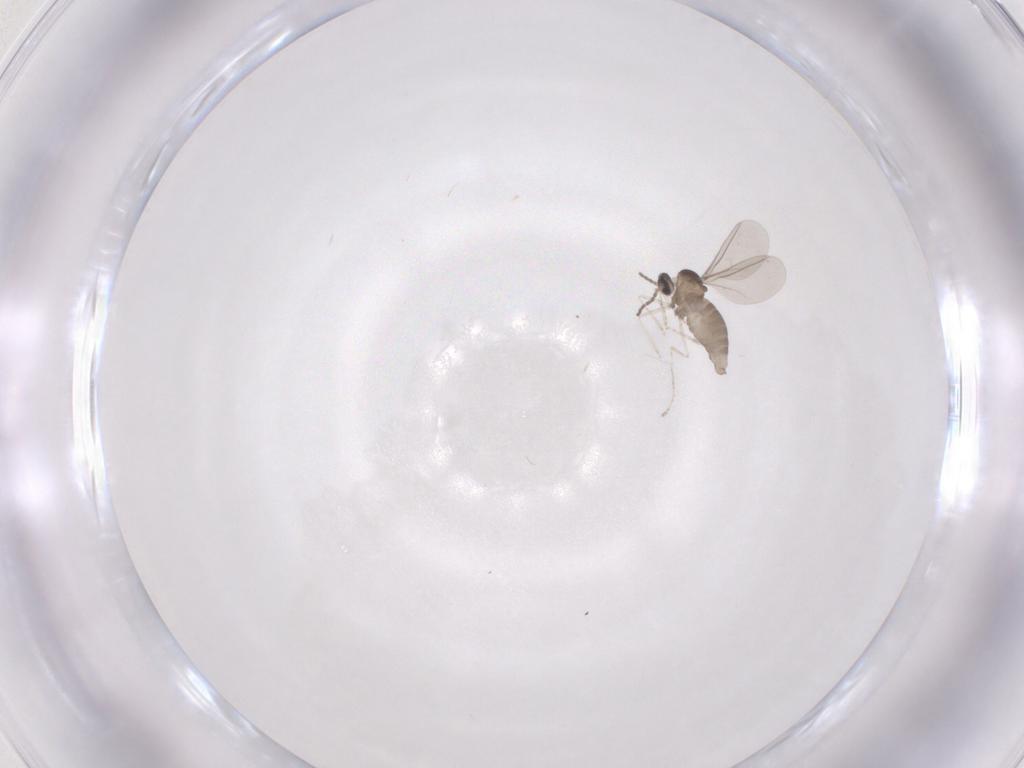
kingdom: Animalia
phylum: Arthropoda
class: Insecta
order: Diptera
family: Cecidomyiidae
